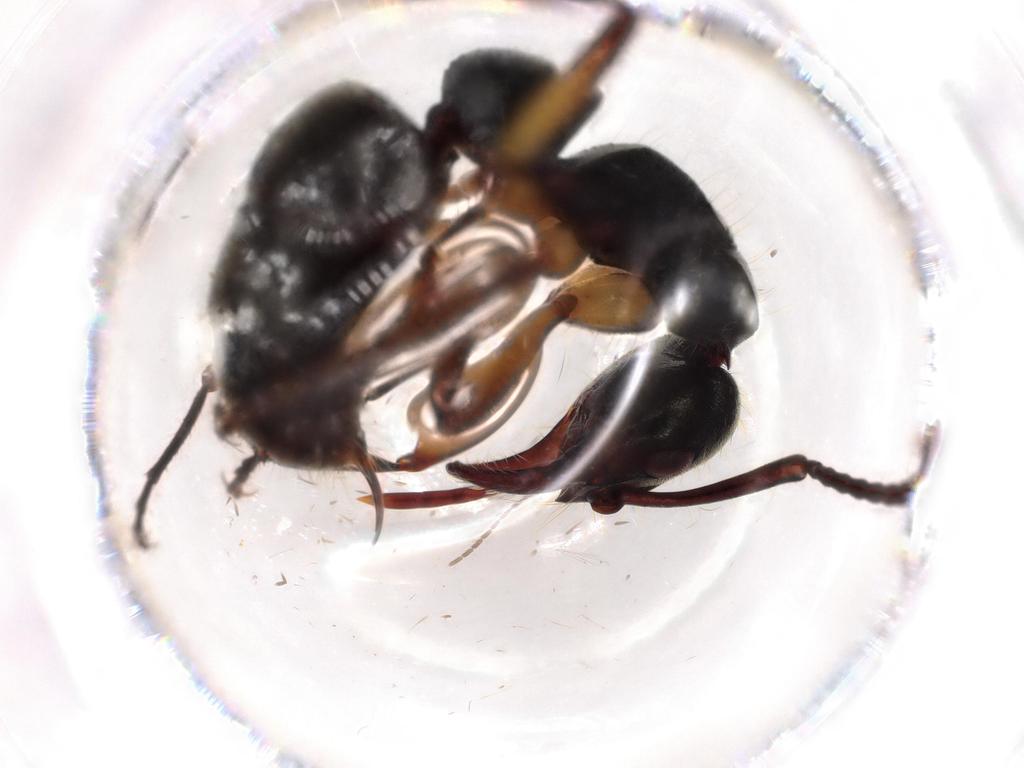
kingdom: Animalia
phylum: Arthropoda
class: Insecta
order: Hymenoptera
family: Formicidae
